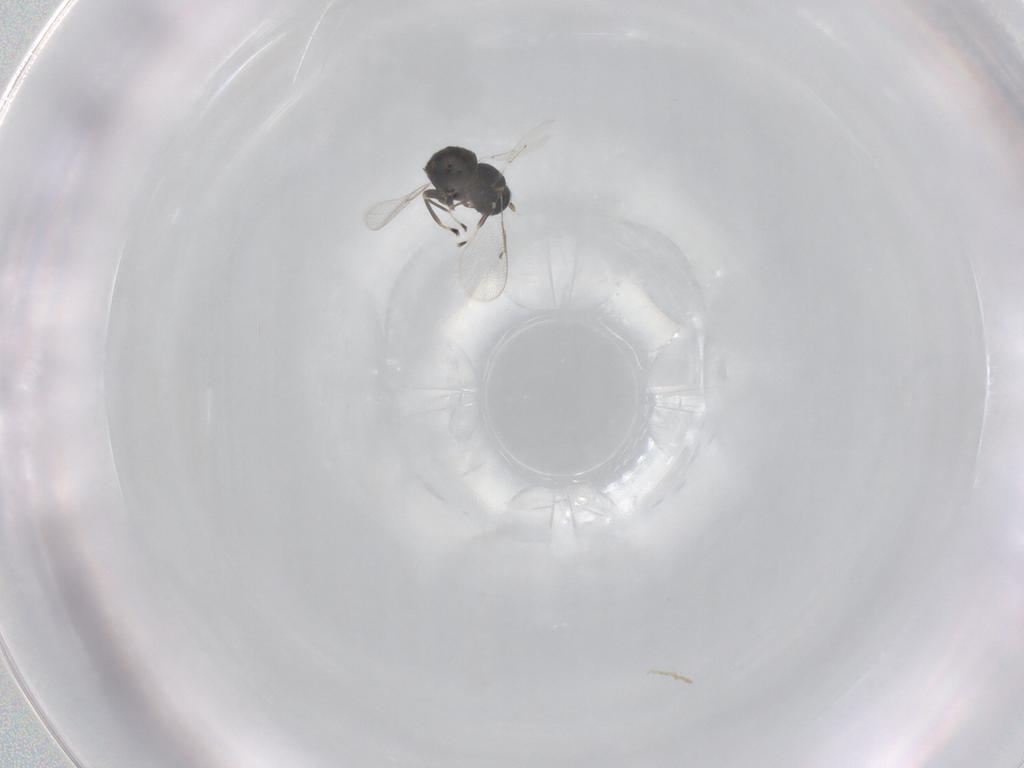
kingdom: Animalia
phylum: Arthropoda
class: Insecta
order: Hymenoptera
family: Eulophidae
